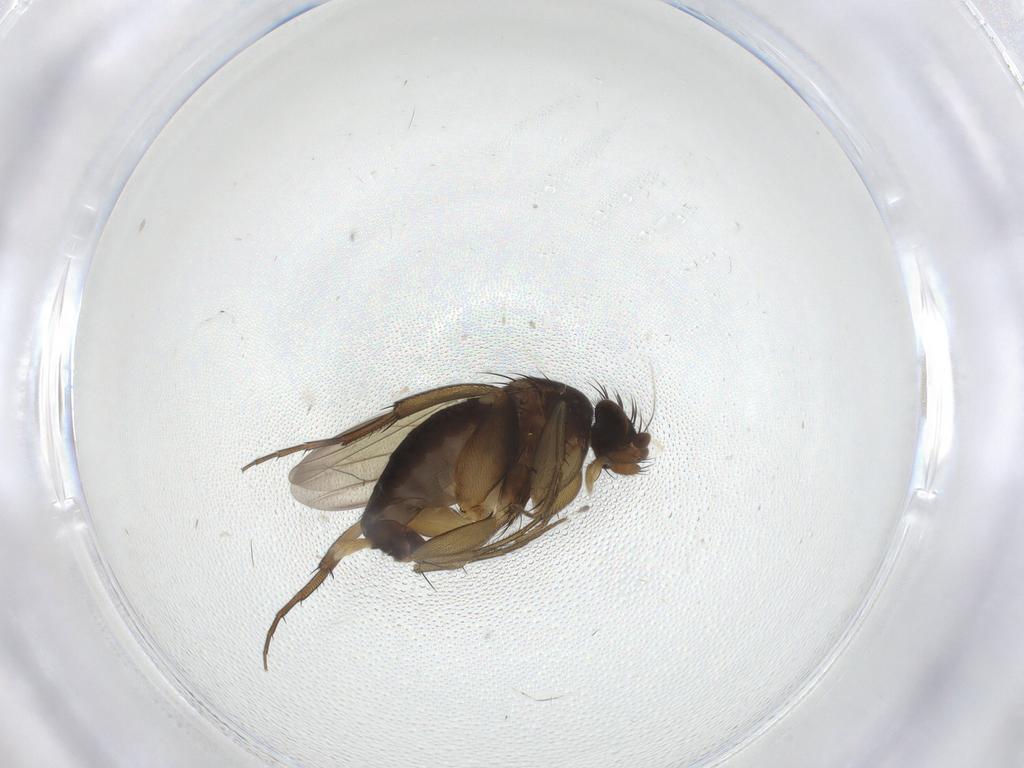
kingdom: Animalia
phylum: Arthropoda
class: Insecta
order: Diptera
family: Phoridae
